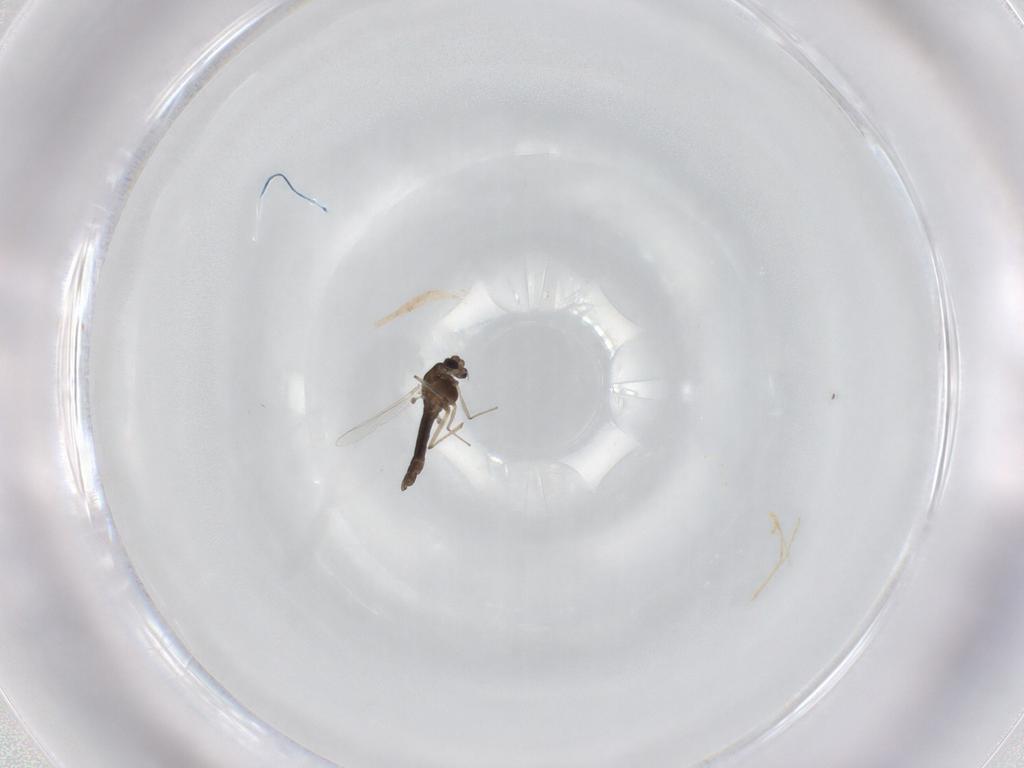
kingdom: Animalia
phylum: Arthropoda
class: Insecta
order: Diptera
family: Chironomidae
